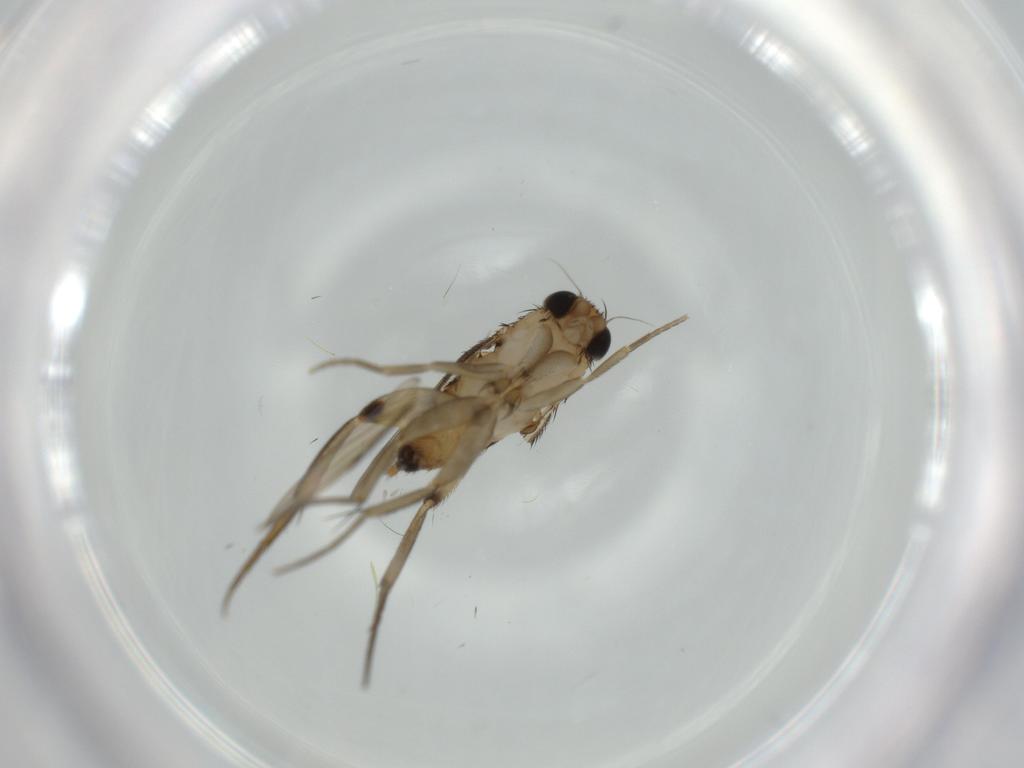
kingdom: Animalia
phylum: Arthropoda
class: Insecta
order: Diptera
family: Phoridae
